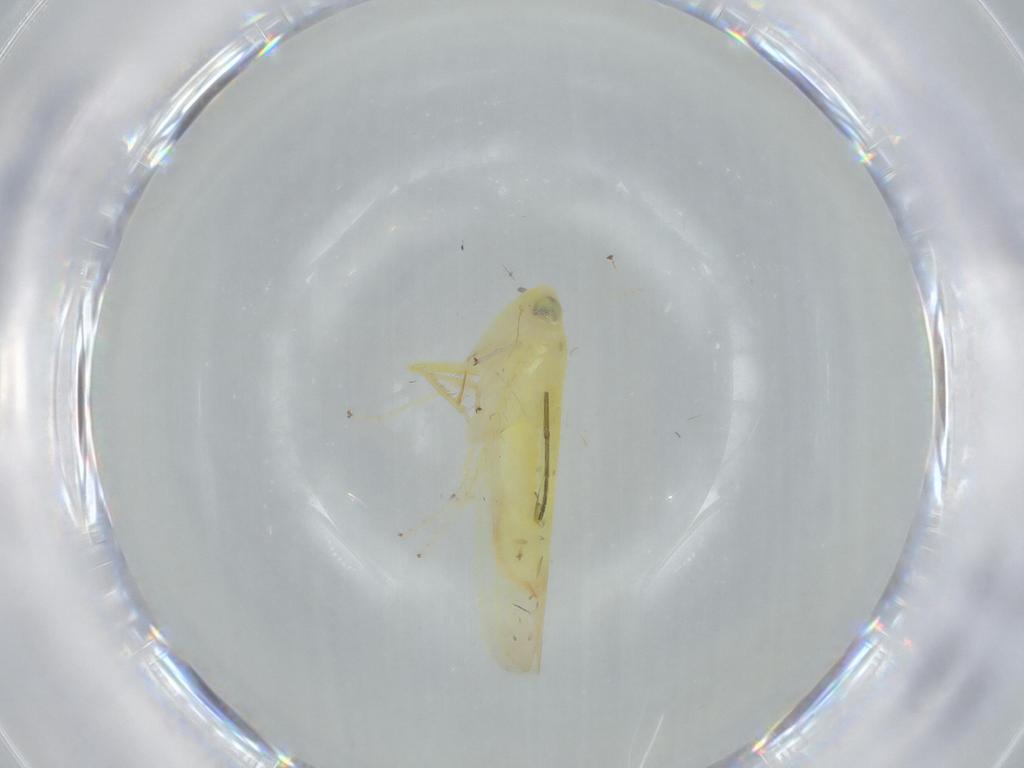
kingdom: Animalia
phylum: Arthropoda
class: Insecta
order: Hemiptera
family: Cicadellidae
